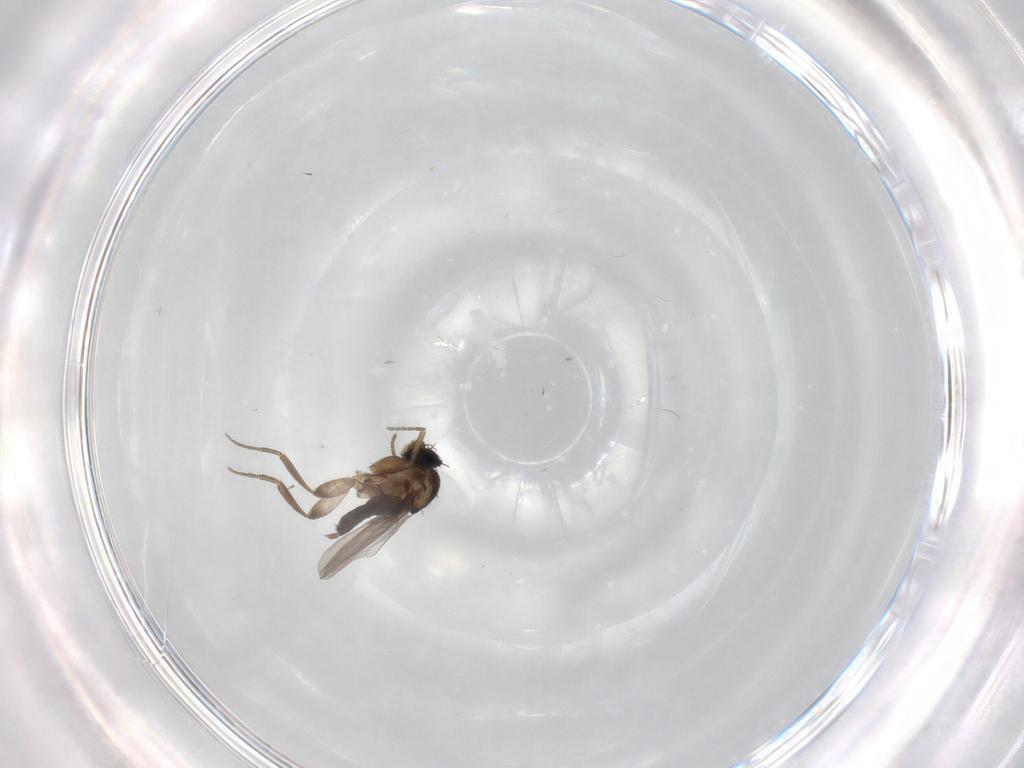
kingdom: Animalia
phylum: Arthropoda
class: Insecta
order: Diptera
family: Phoridae
